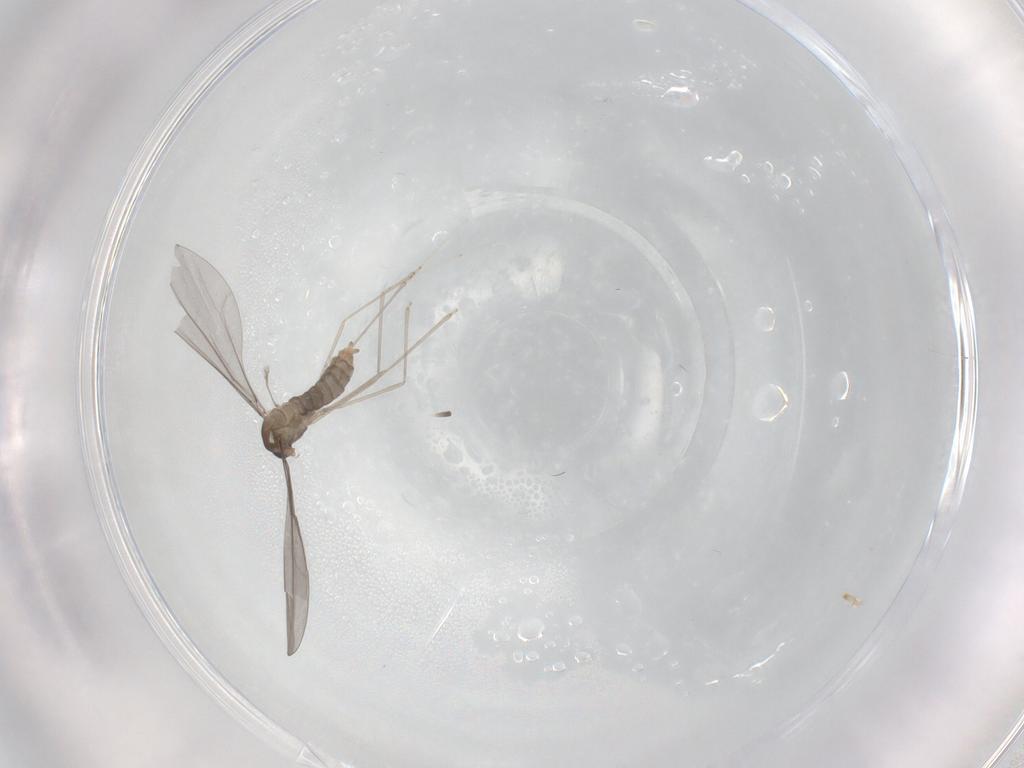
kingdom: Animalia
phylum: Arthropoda
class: Insecta
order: Diptera
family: Cecidomyiidae
